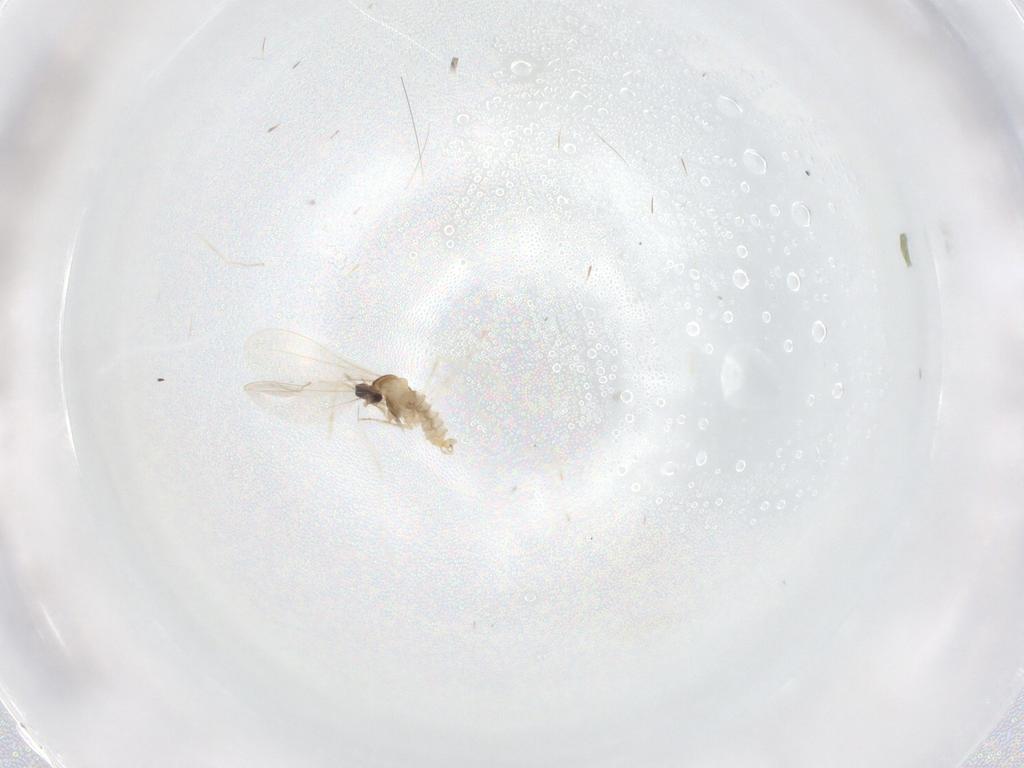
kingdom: Animalia
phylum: Arthropoda
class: Insecta
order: Diptera
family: Cecidomyiidae
